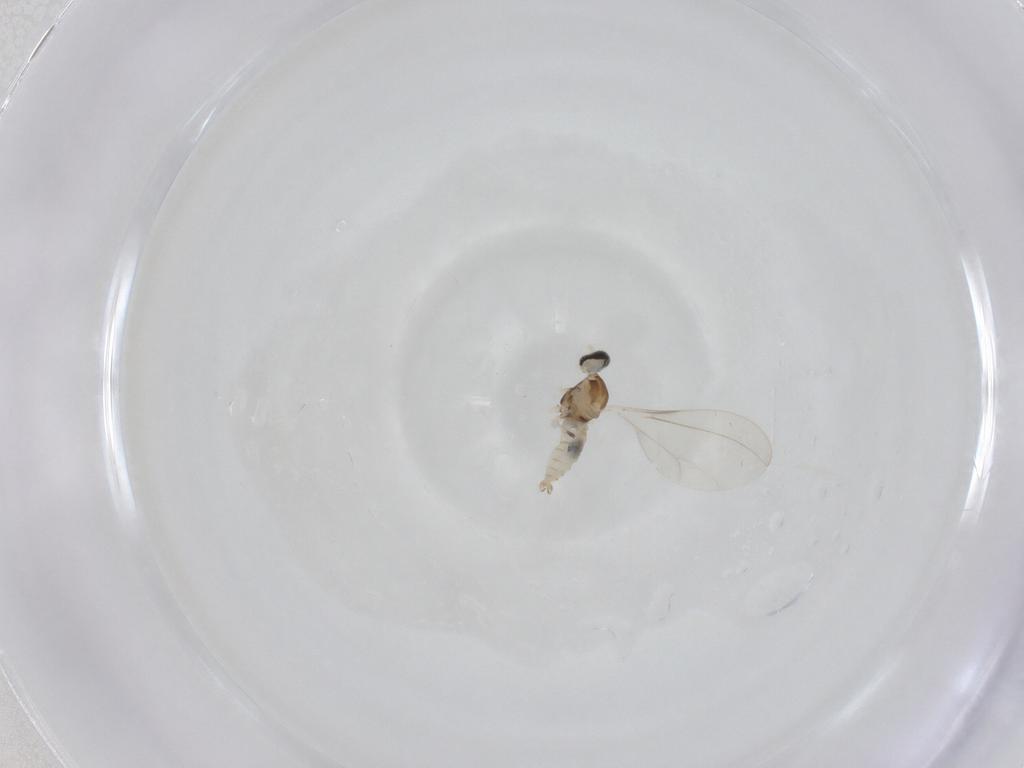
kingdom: Animalia
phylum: Arthropoda
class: Insecta
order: Diptera
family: Cecidomyiidae
